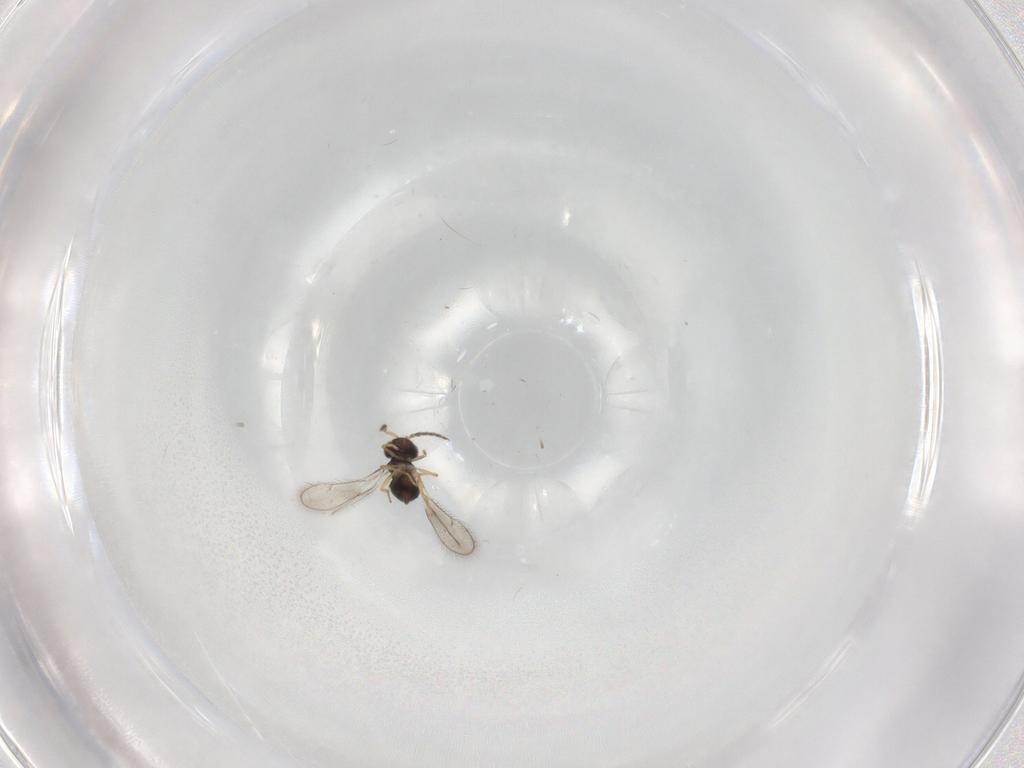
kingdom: Animalia
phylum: Arthropoda
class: Insecta
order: Hymenoptera
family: Eulophidae
